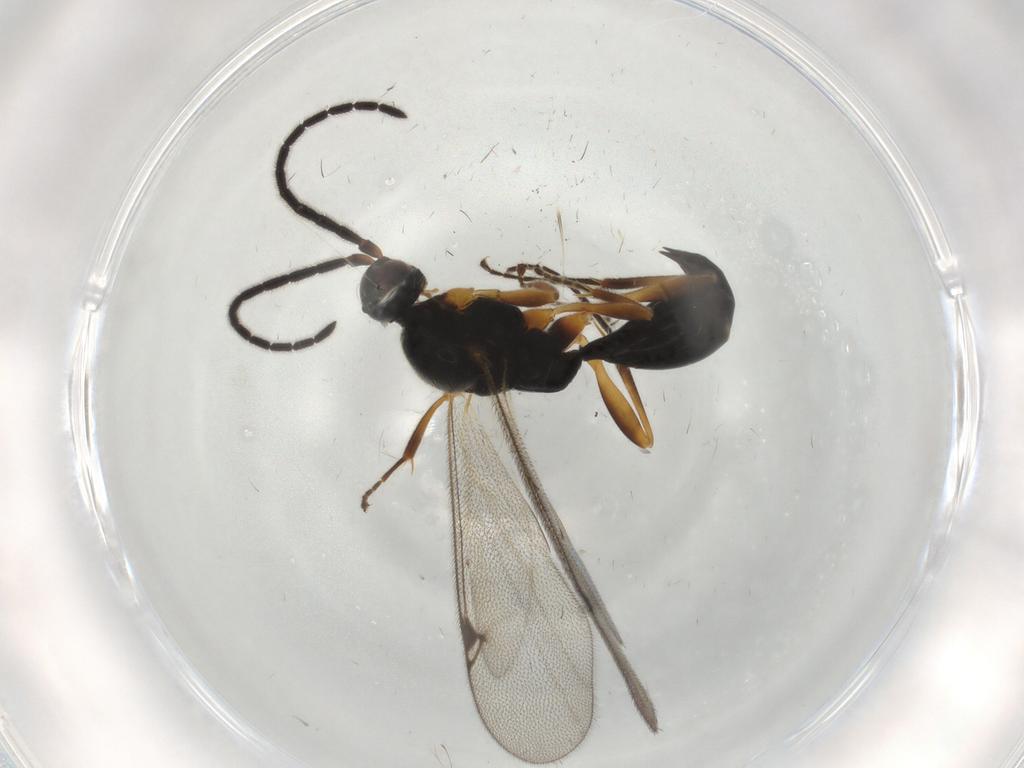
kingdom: Animalia
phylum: Arthropoda
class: Insecta
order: Hymenoptera
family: Proctotrupidae
